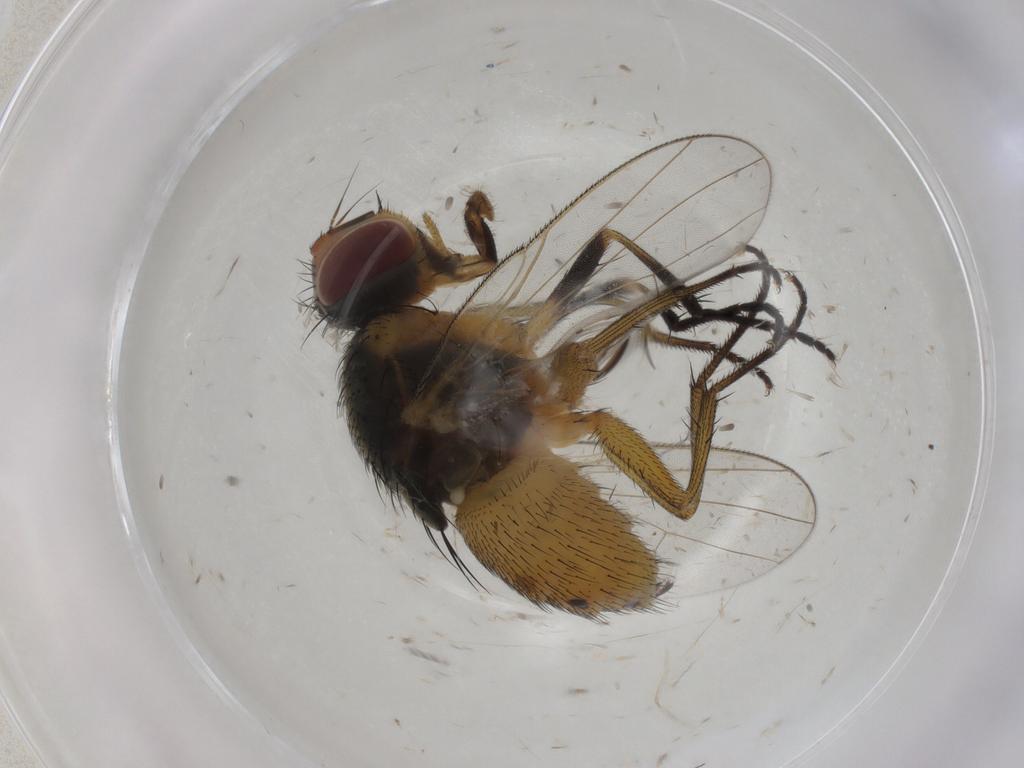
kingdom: Animalia
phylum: Arthropoda
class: Insecta
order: Diptera
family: Muscidae
